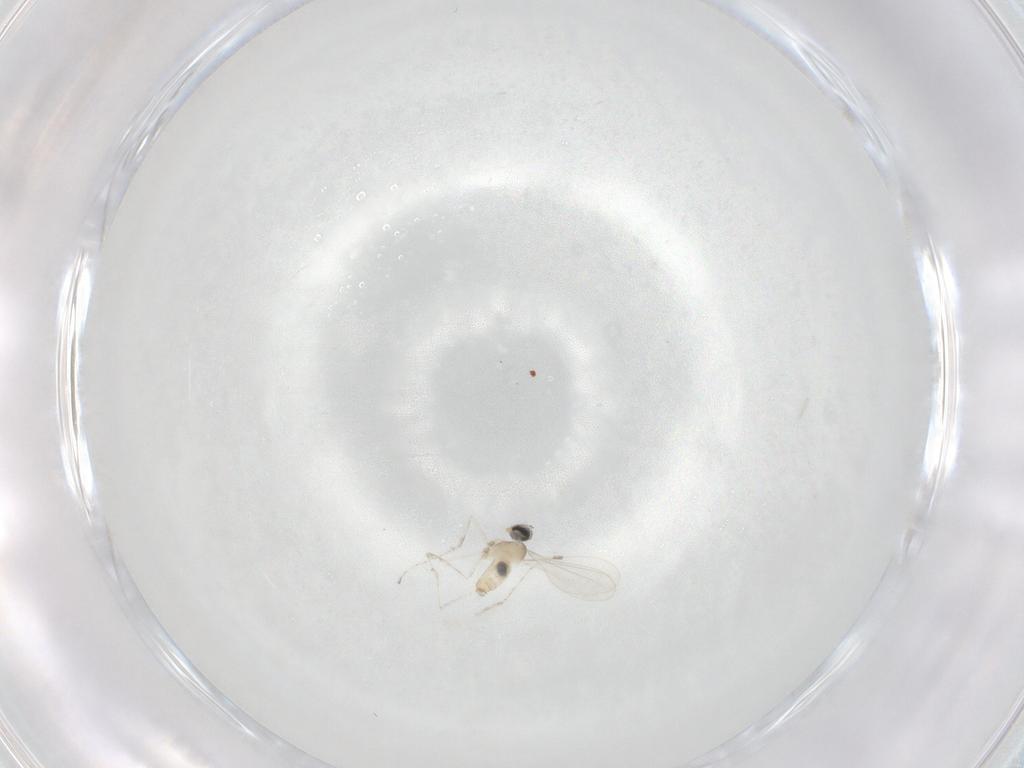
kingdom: Animalia
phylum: Arthropoda
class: Insecta
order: Diptera
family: Cecidomyiidae
